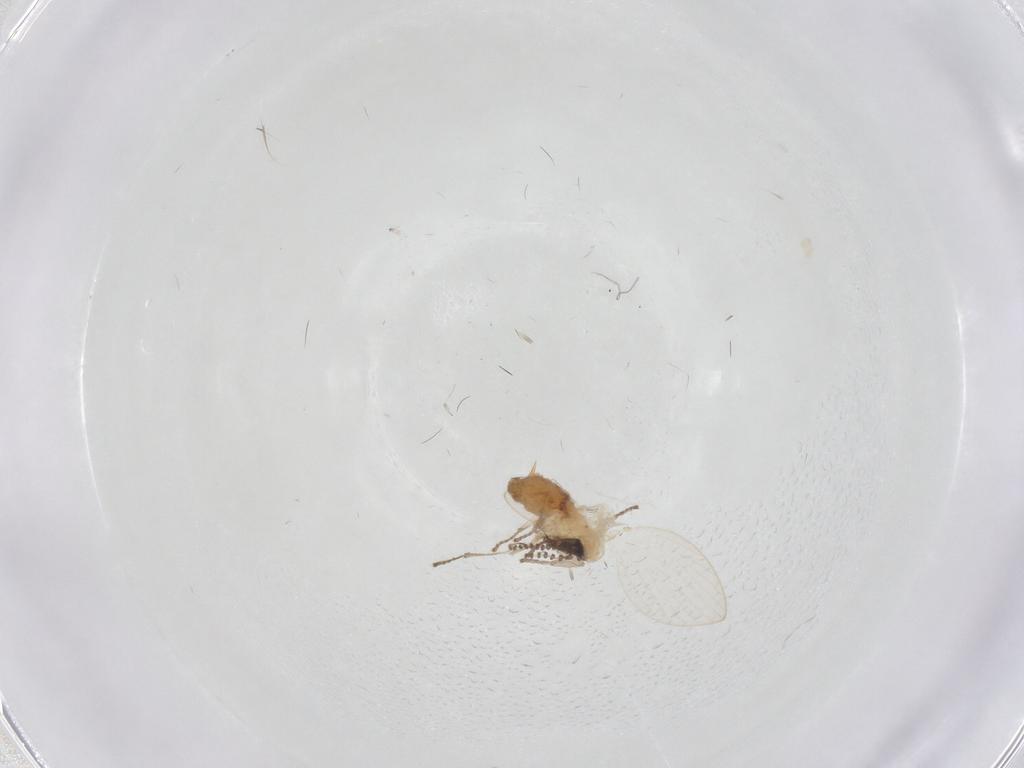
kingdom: Animalia
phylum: Arthropoda
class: Insecta
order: Diptera
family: Psychodidae
